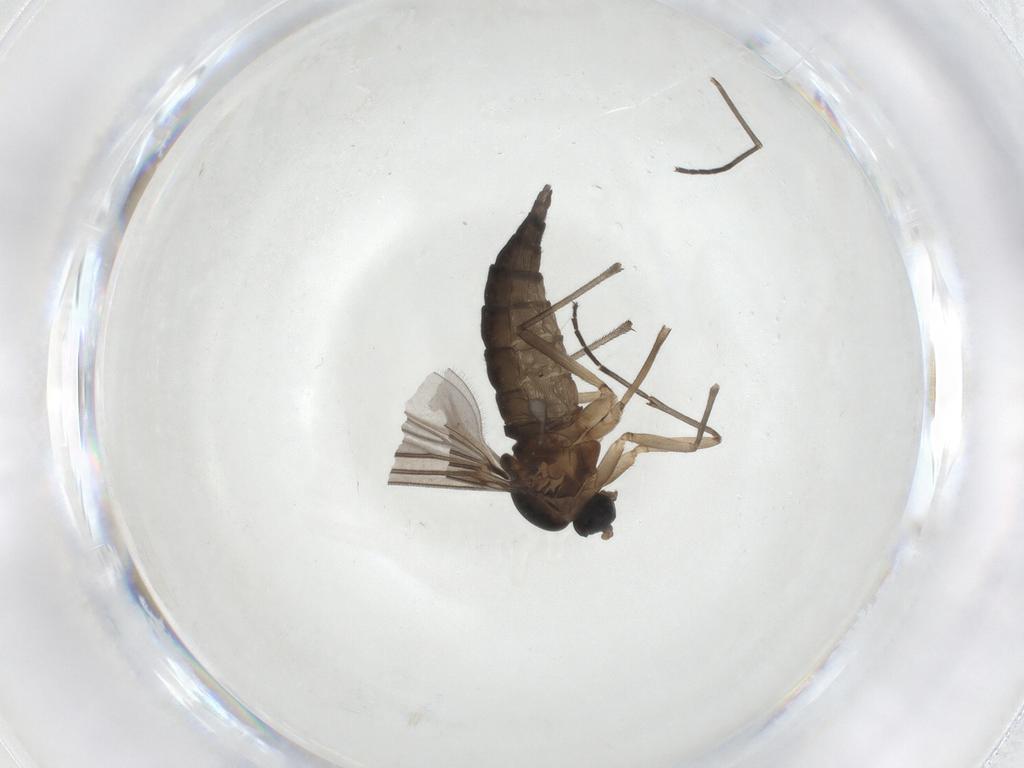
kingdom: Animalia
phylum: Arthropoda
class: Insecta
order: Diptera
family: Sciaridae
